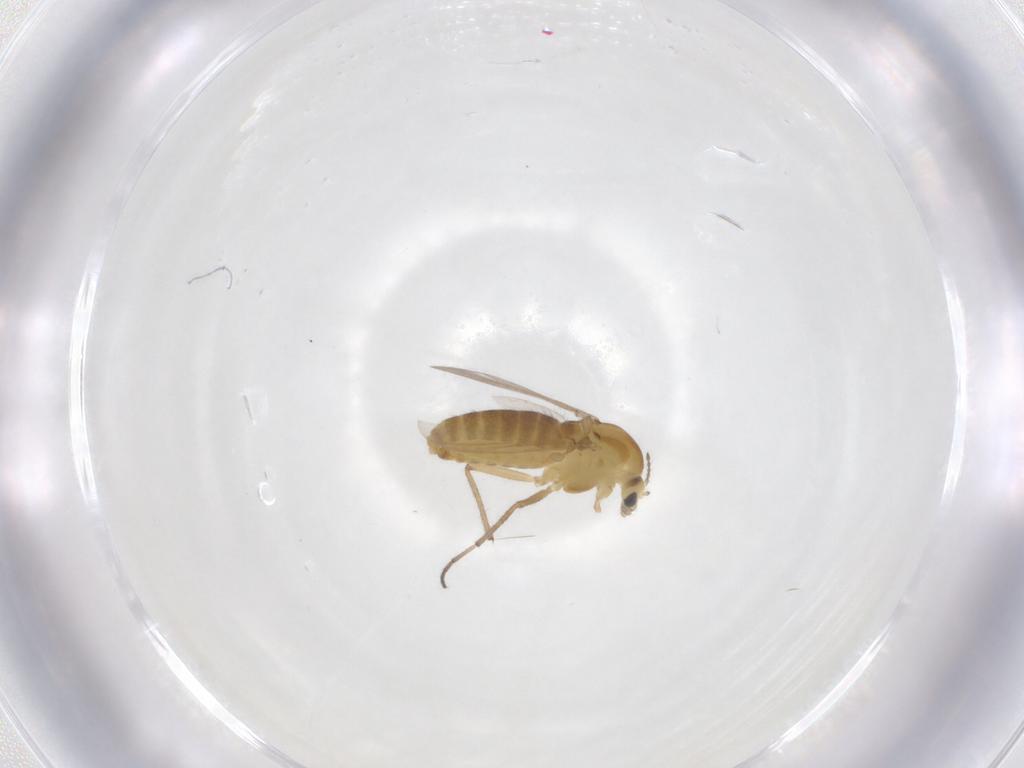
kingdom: Animalia
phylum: Arthropoda
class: Insecta
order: Diptera
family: Chironomidae
